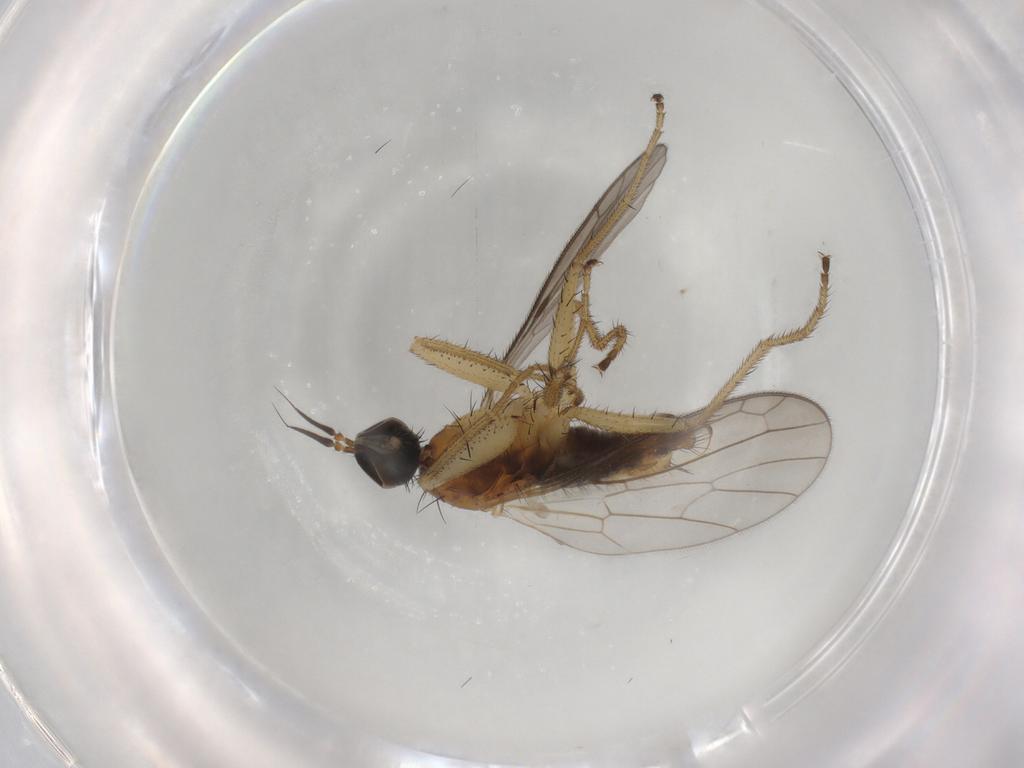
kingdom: Animalia
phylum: Arthropoda
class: Insecta
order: Diptera
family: Empididae
